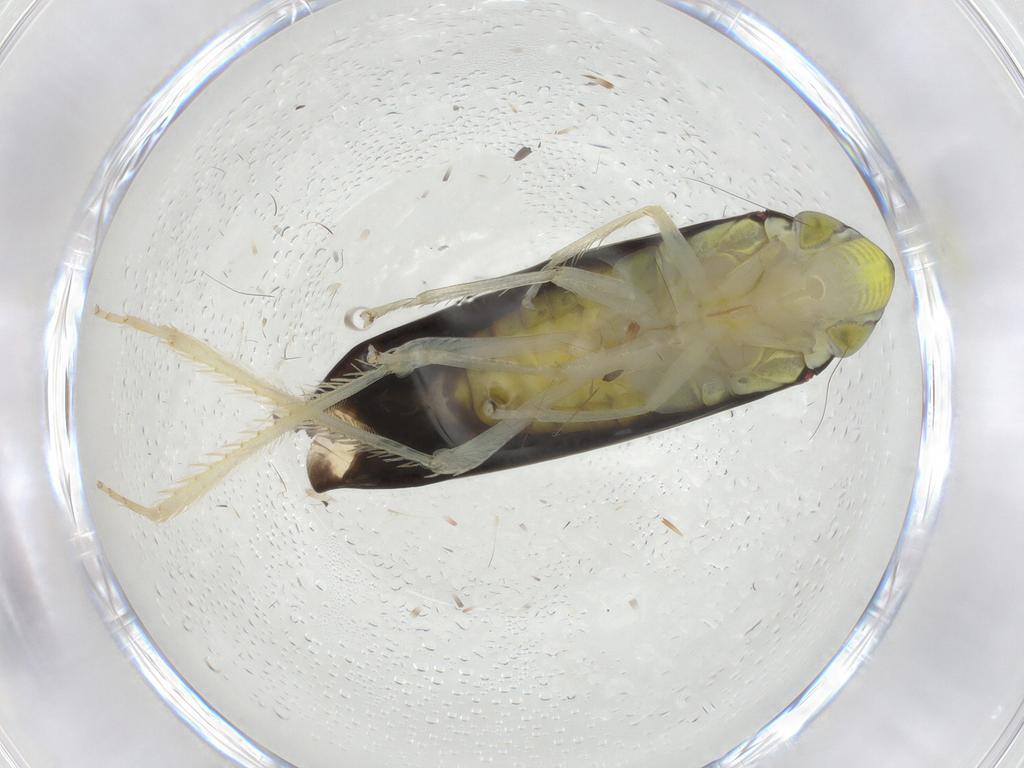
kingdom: Animalia
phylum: Arthropoda
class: Insecta
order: Hemiptera
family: Cicadellidae
